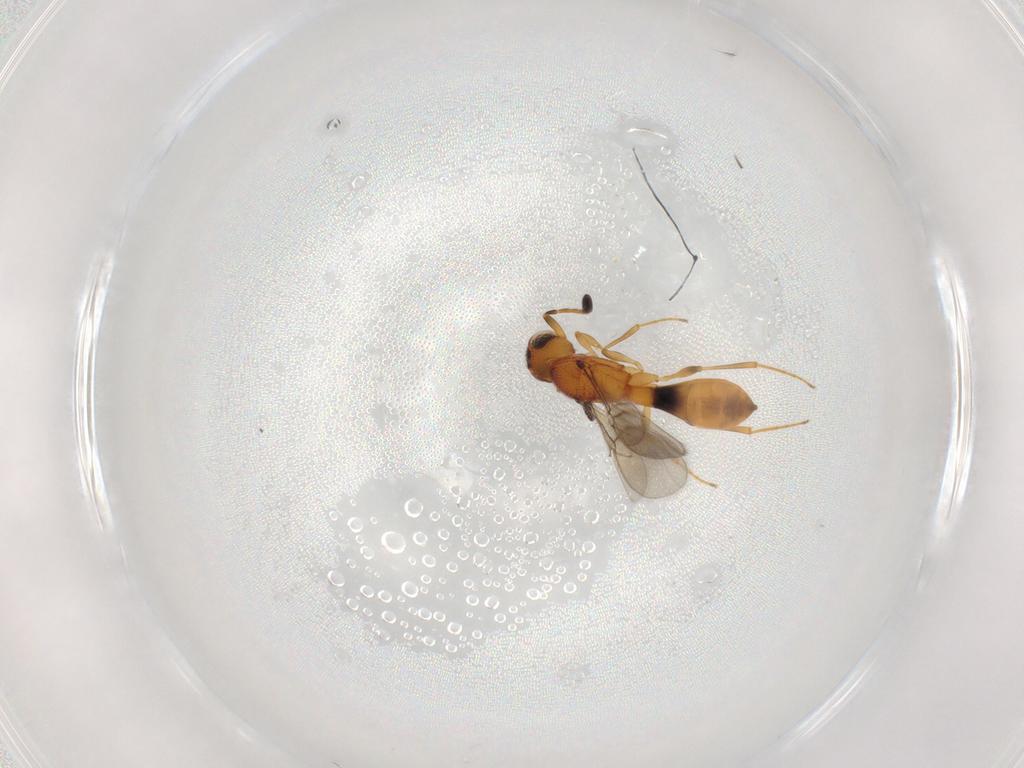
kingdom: Animalia
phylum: Arthropoda
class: Insecta
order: Hymenoptera
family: Scelionidae
